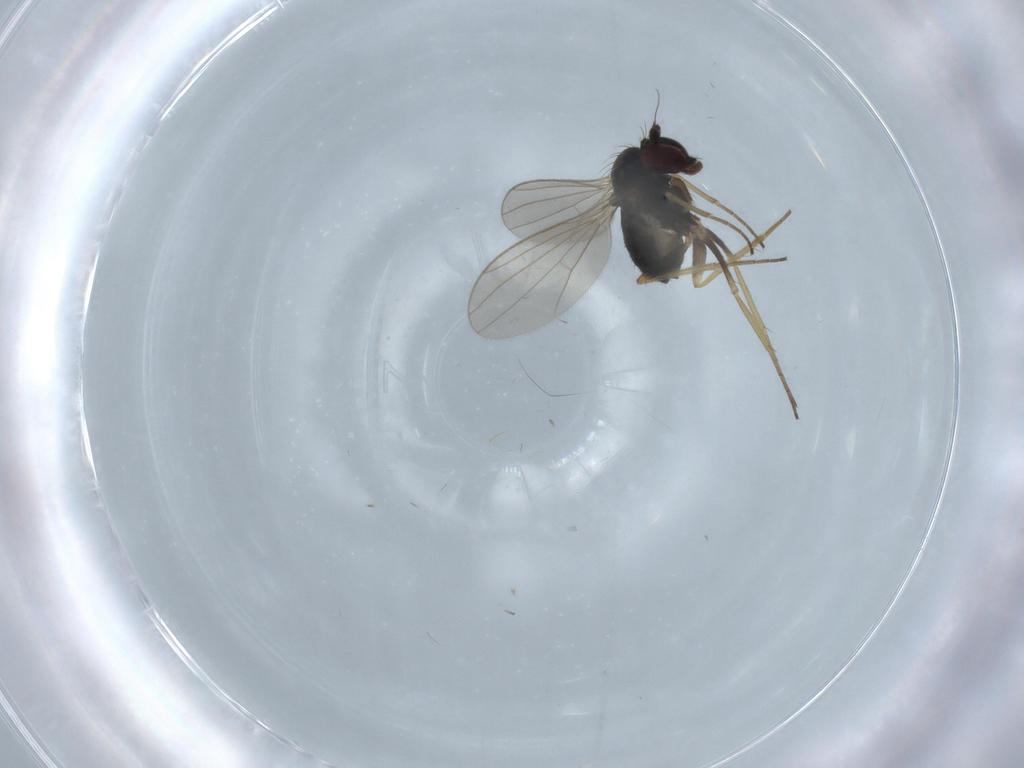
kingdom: Animalia
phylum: Arthropoda
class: Insecta
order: Diptera
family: Dolichopodidae
